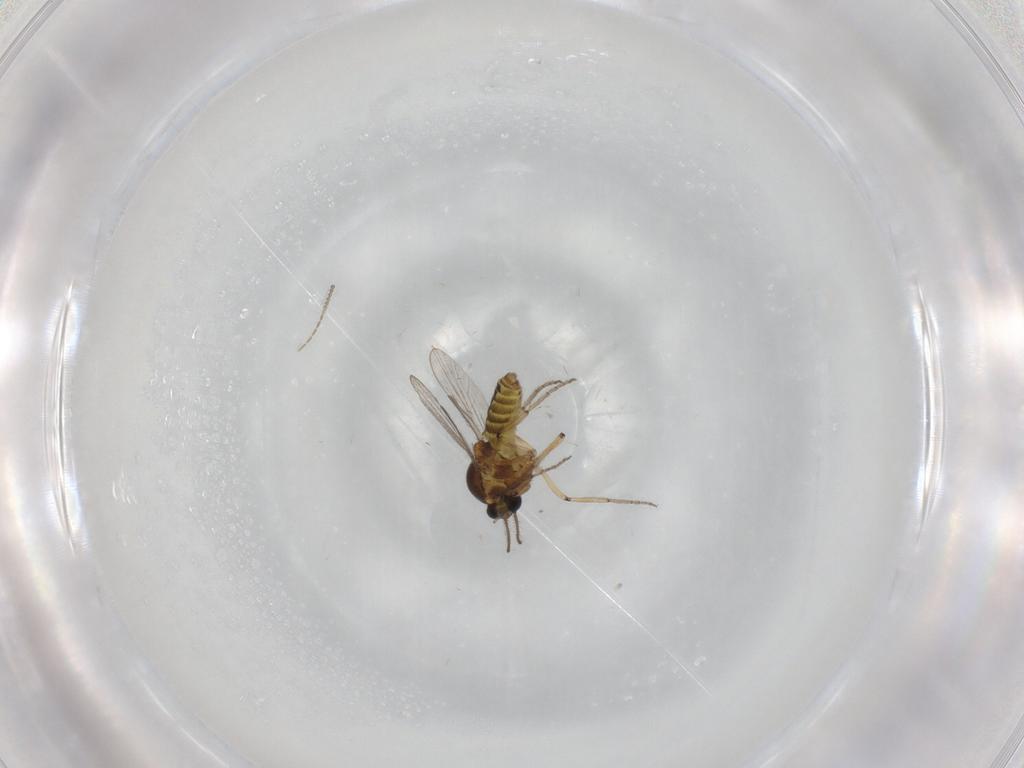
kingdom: Animalia
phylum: Arthropoda
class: Insecta
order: Diptera
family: Ceratopogonidae
